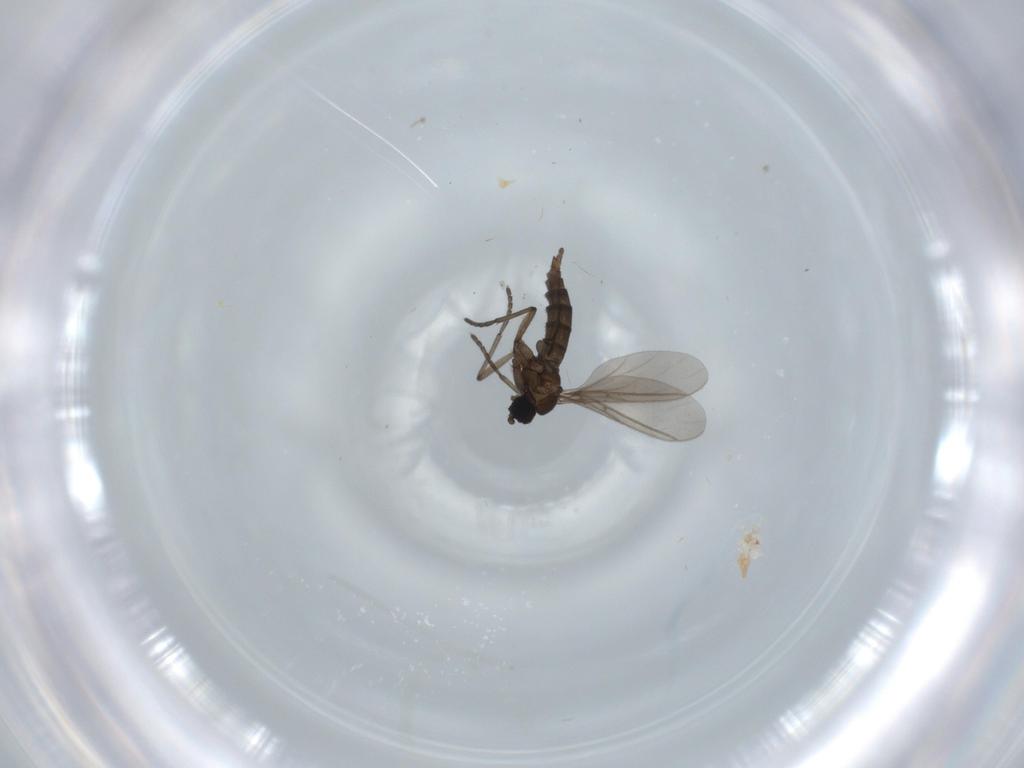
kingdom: Animalia
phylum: Arthropoda
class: Insecta
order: Diptera
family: Sciaridae
